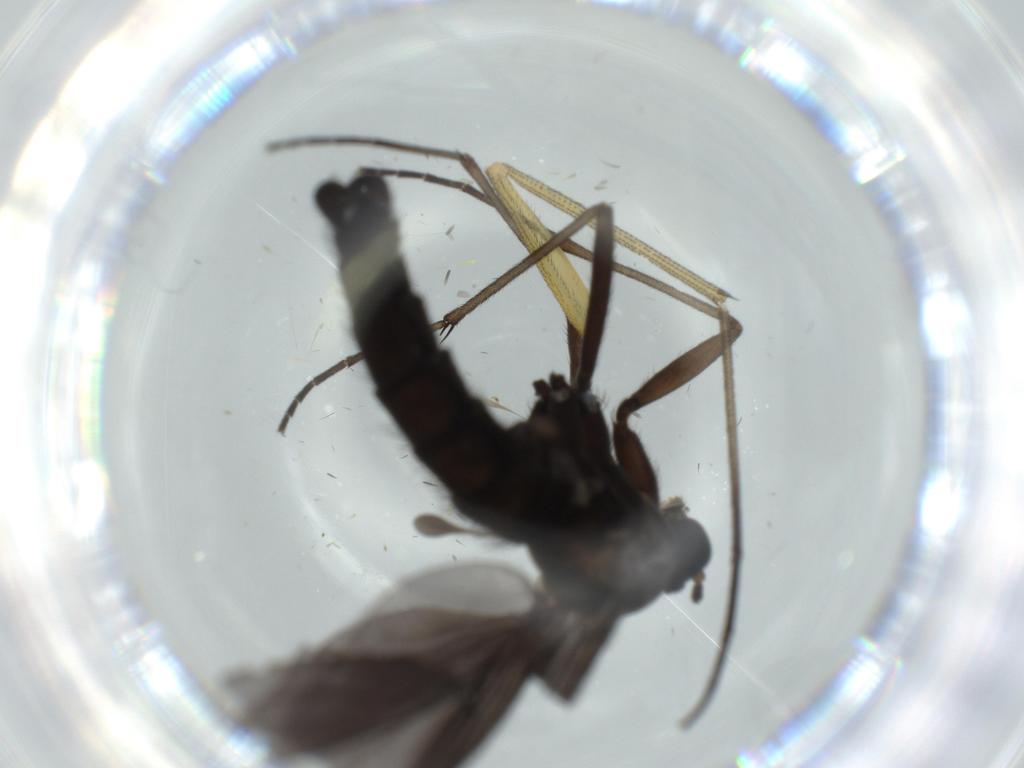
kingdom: Animalia
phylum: Arthropoda
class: Insecta
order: Diptera
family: Dolichopodidae
